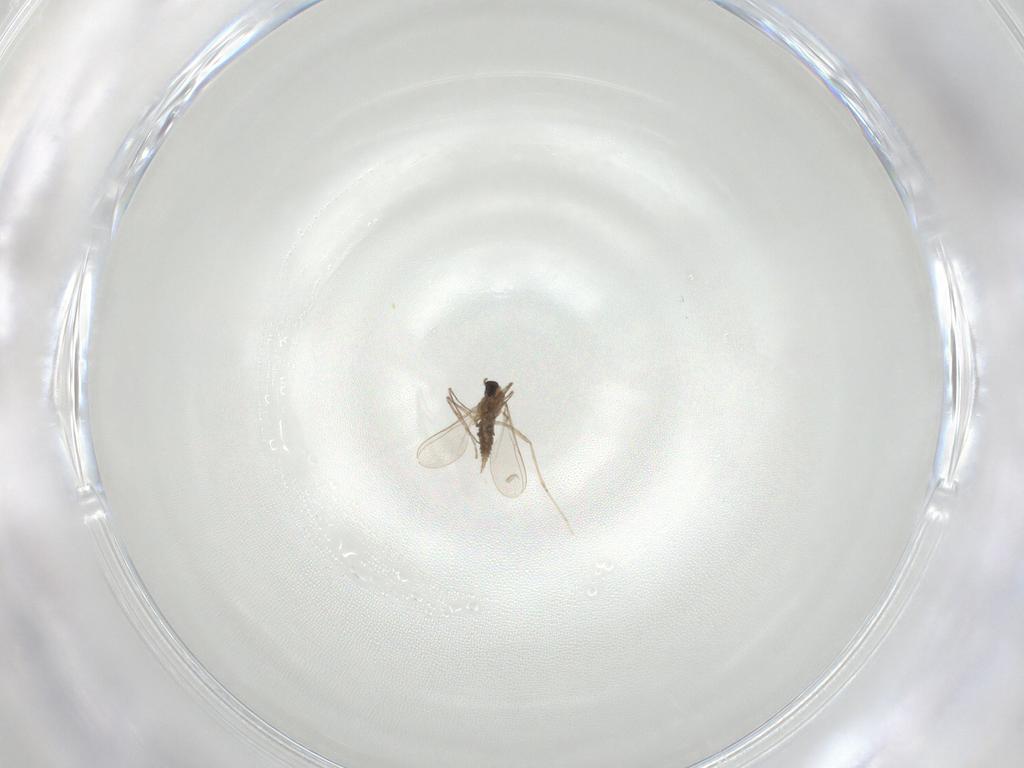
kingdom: Animalia
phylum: Arthropoda
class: Insecta
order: Diptera
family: Cecidomyiidae
